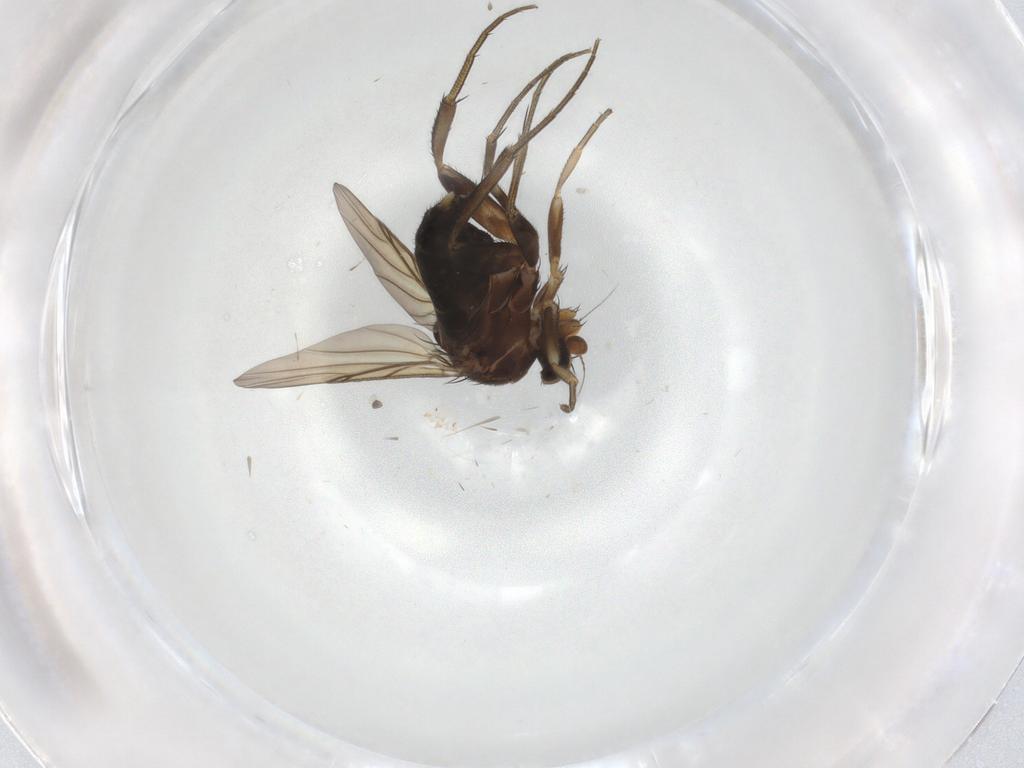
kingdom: Animalia
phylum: Arthropoda
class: Insecta
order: Diptera
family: Phoridae
